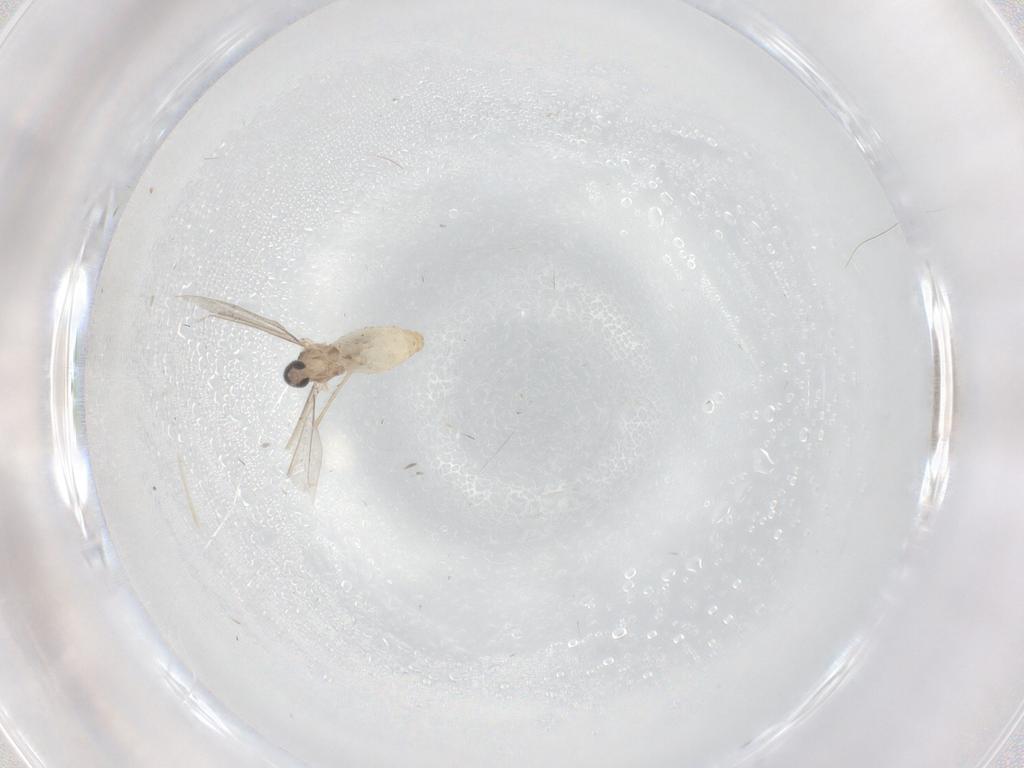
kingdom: Animalia
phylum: Arthropoda
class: Insecta
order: Diptera
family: Cecidomyiidae
